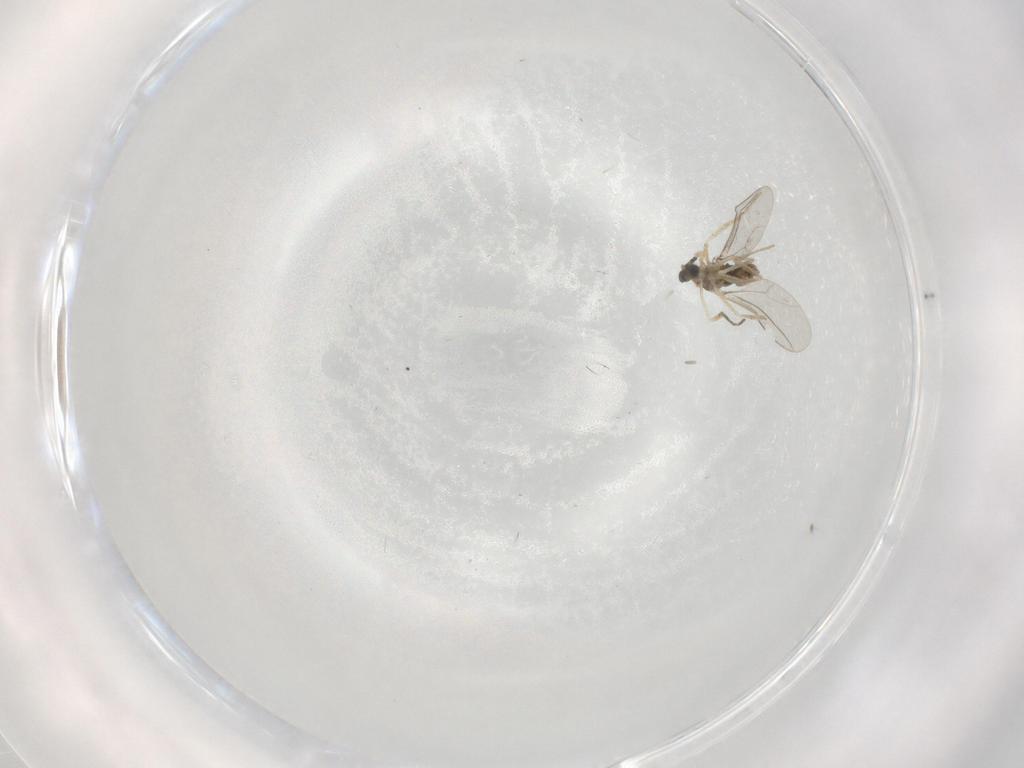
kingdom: Animalia
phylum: Arthropoda
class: Insecta
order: Diptera
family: Cecidomyiidae
